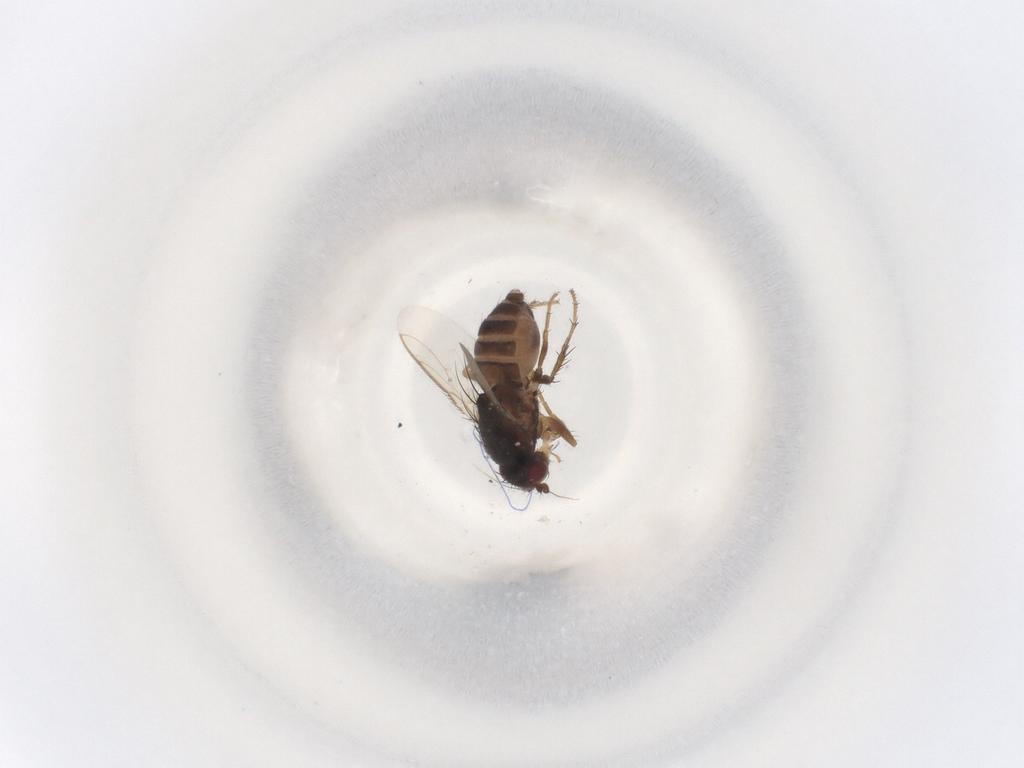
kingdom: Animalia
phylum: Arthropoda
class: Insecta
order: Diptera
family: Sphaeroceridae
